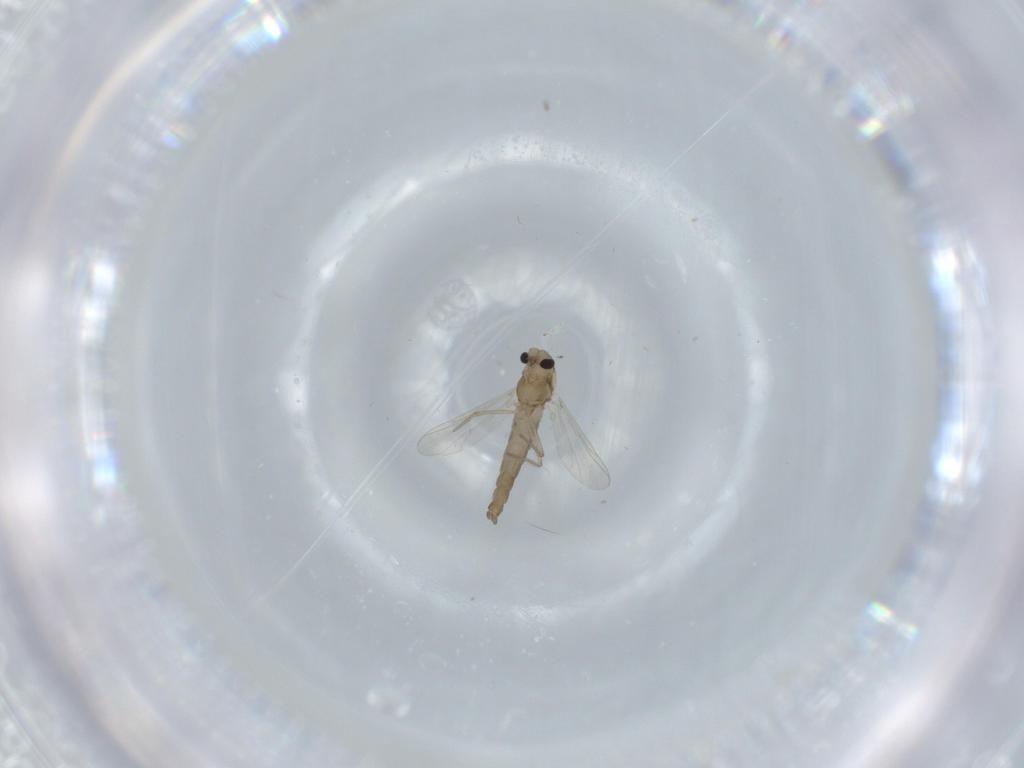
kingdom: Animalia
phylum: Arthropoda
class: Insecta
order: Diptera
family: Chironomidae
